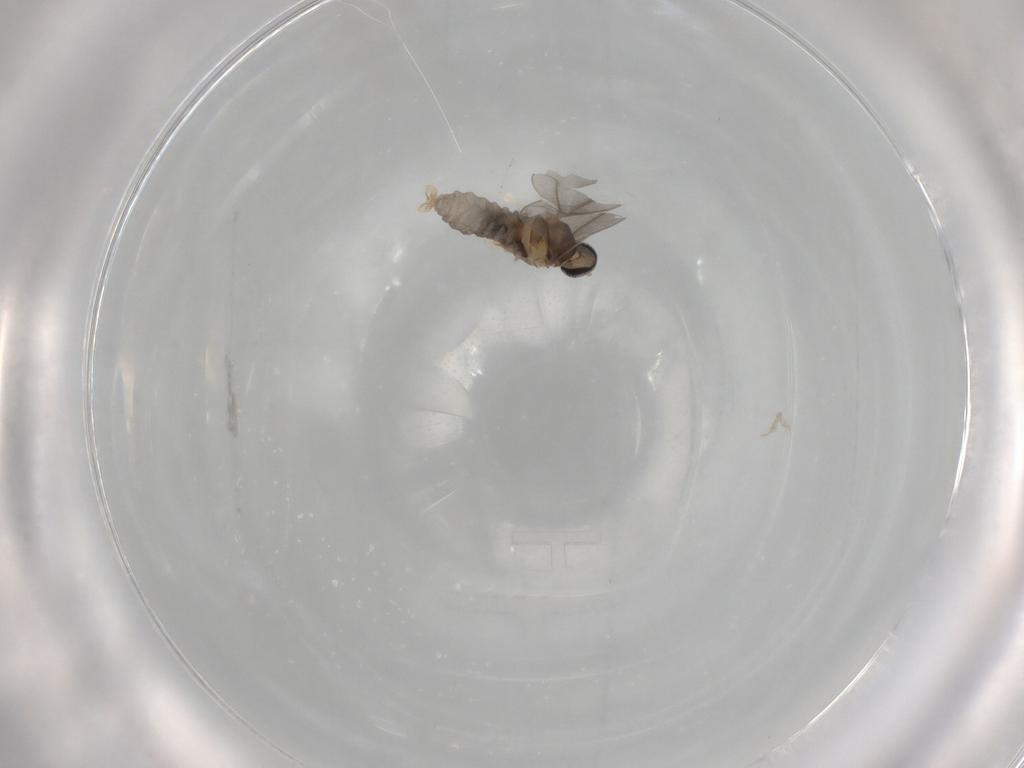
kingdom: Animalia
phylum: Arthropoda
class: Insecta
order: Diptera
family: Cecidomyiidae
